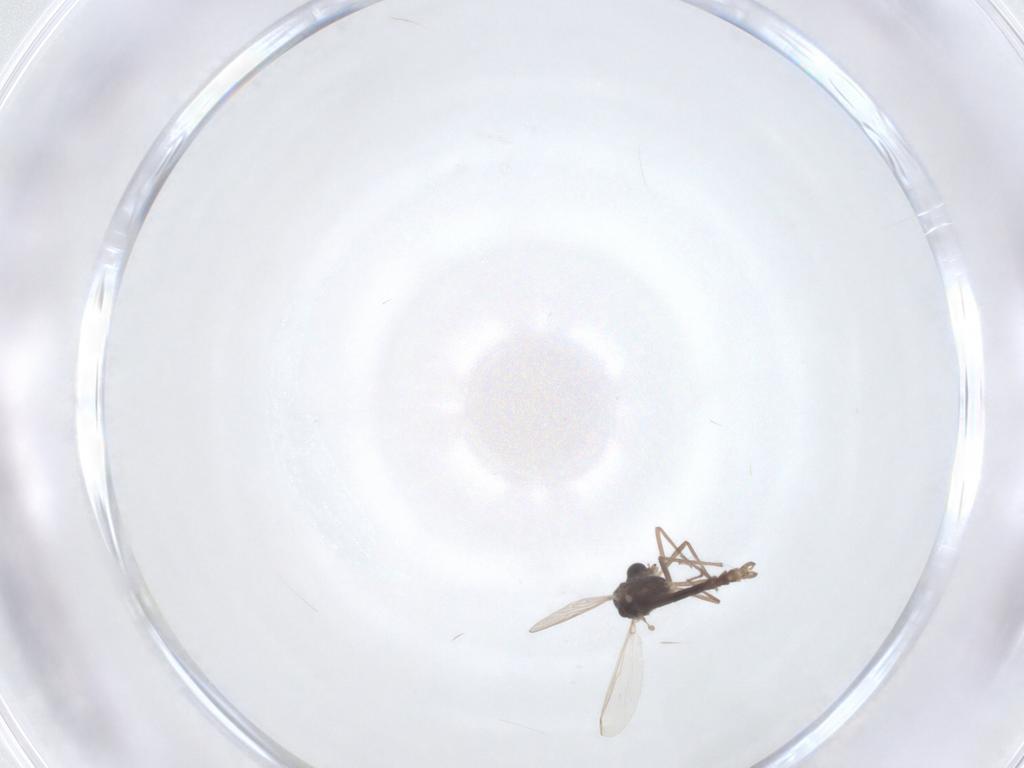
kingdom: Animalia
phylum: Arthropoda
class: Insecta
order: Diptera
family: Chironomidae
